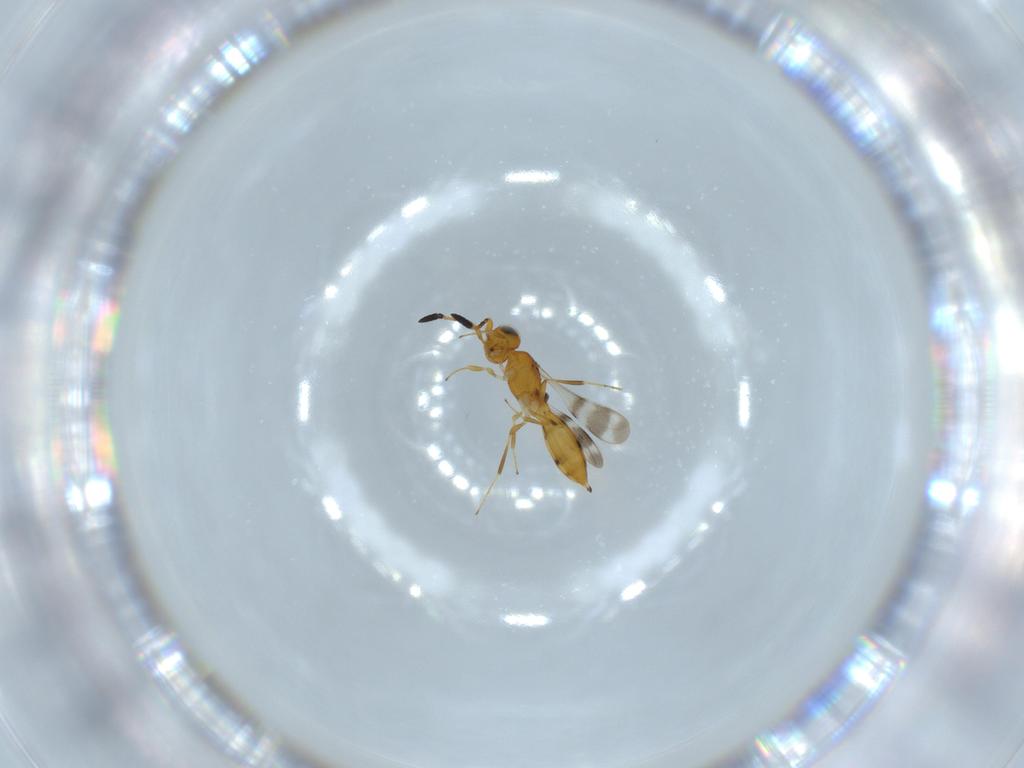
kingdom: Animalia
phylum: Arthropoda
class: Insecta
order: Hymenoptera
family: Scelionidae
